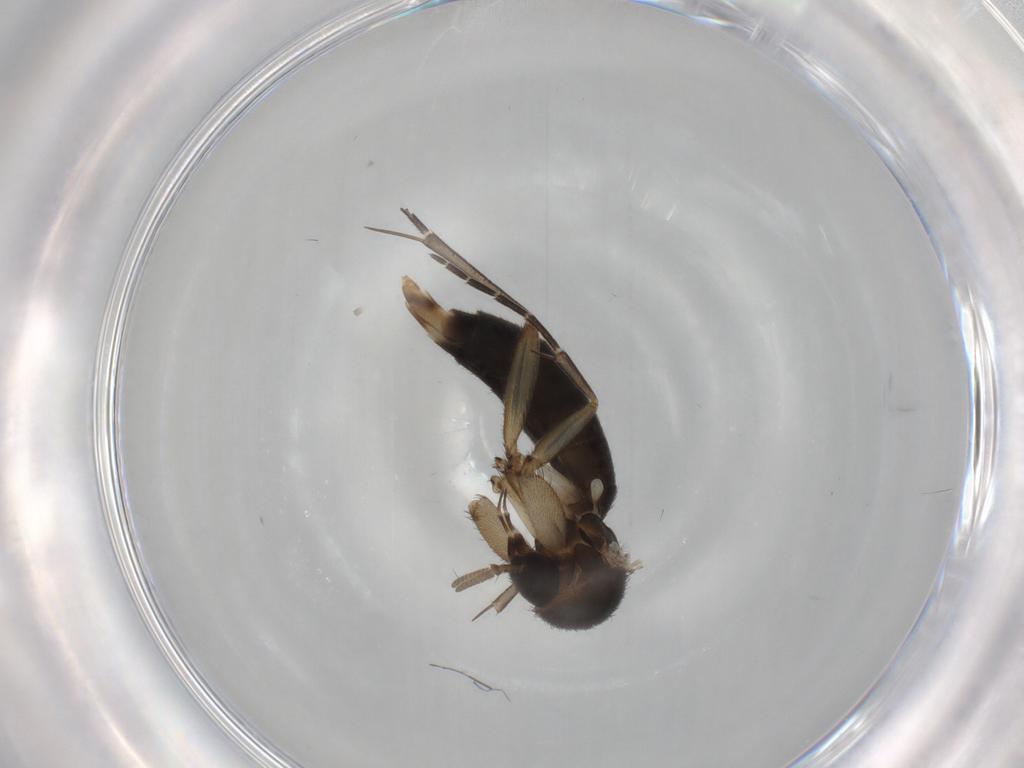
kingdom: Animalia
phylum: Arthropoda
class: Insecta
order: Diptera
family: Mycetophilidae
